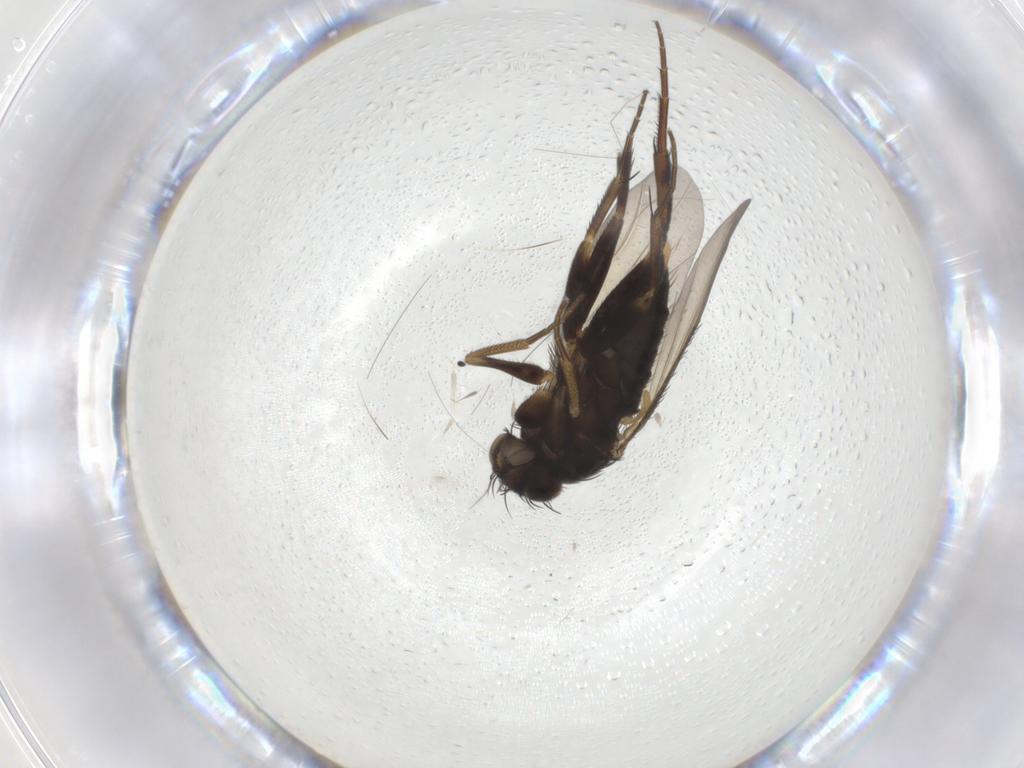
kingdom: Animalia
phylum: Arthropoda
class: Insecta
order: Diptera
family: Phoridae
